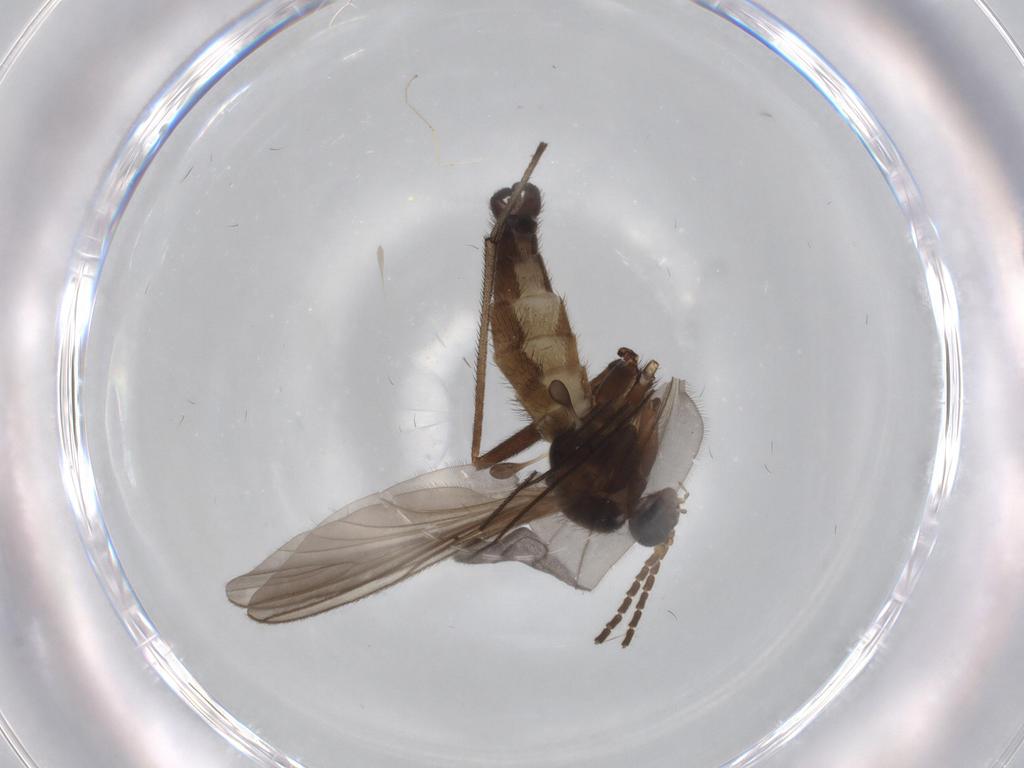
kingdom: Animalia
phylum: Arthropoda
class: Insecta
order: Diptera
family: Sciaridae
